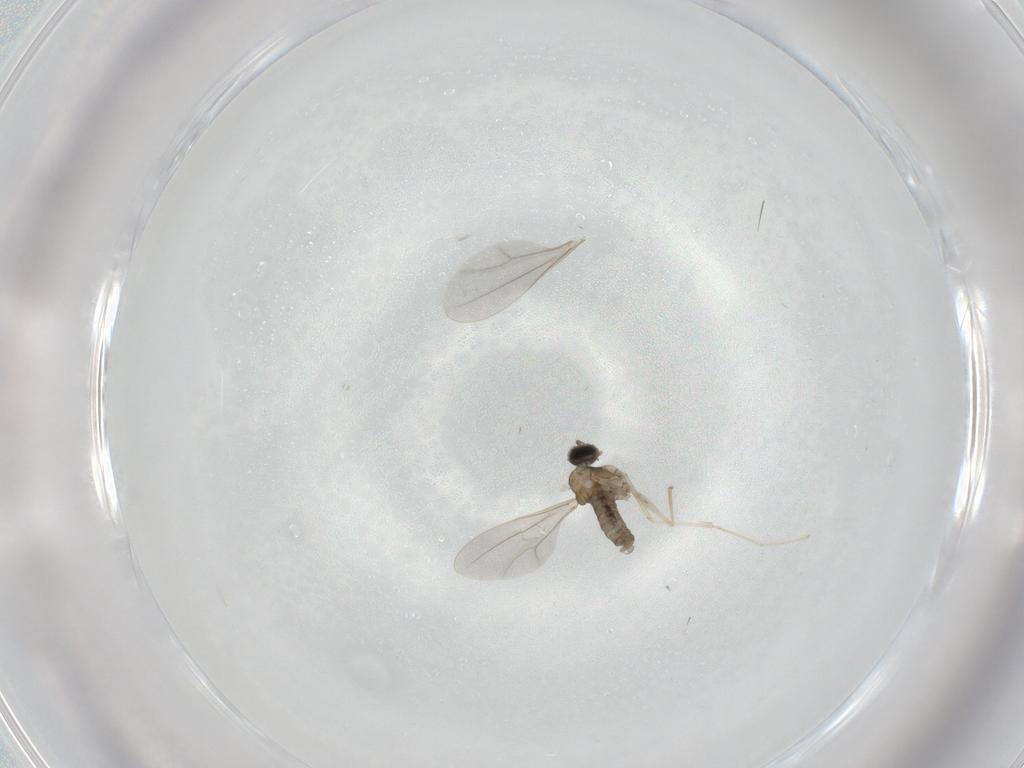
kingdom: Animalia
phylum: Arthropoda
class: Insecta
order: Diptera
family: Cecidomyiidae
